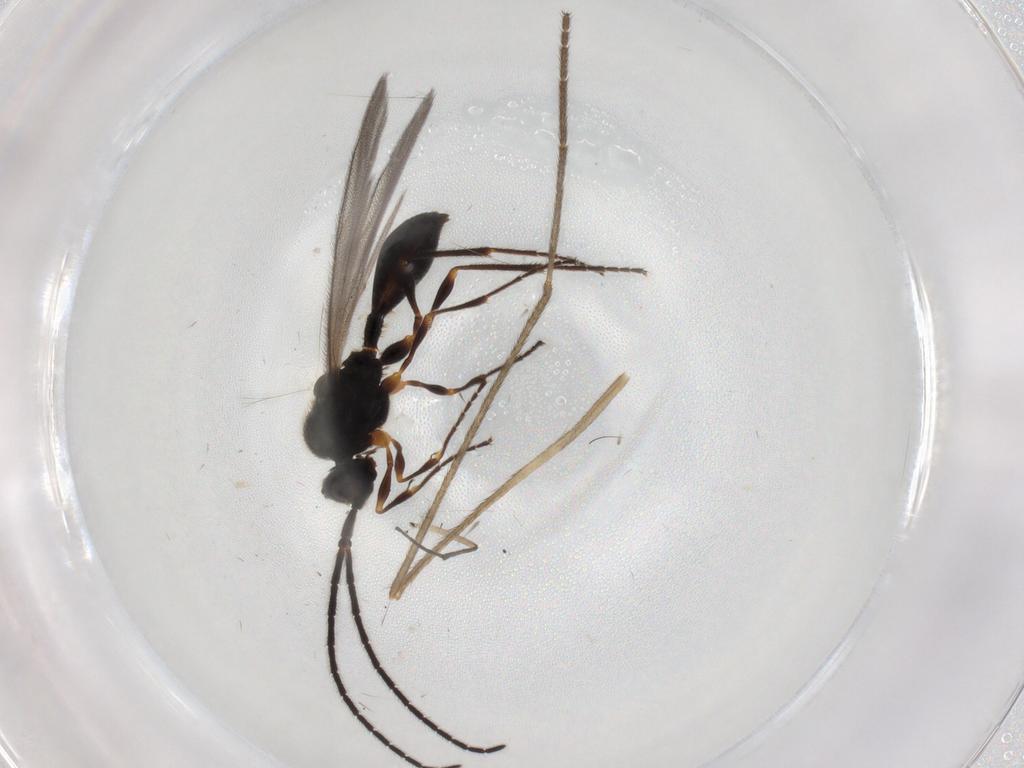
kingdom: Animalia
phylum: Arthropoda
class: Insecta
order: Hymenoptera
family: Diapriidae
